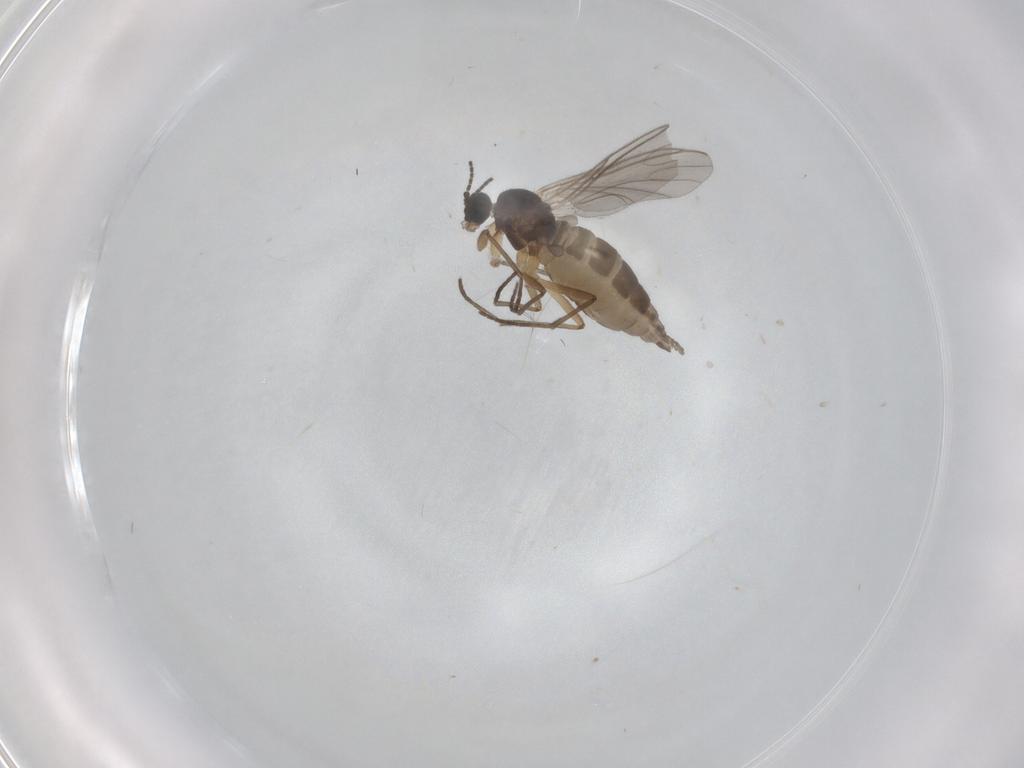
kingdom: Animalia
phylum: Arthropoda
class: Insecta
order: Diptera
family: Sciaridae
